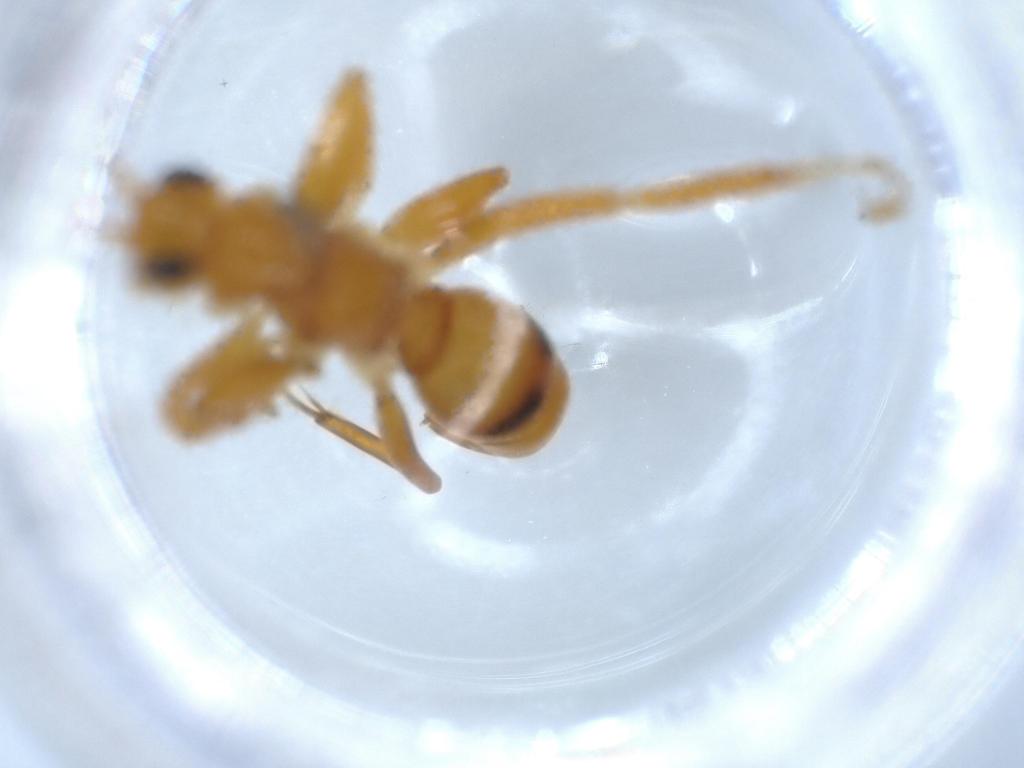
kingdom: Animalia
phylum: Arthropoda
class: Insecta
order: Hymenoptera
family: Rhopalosomatidae
